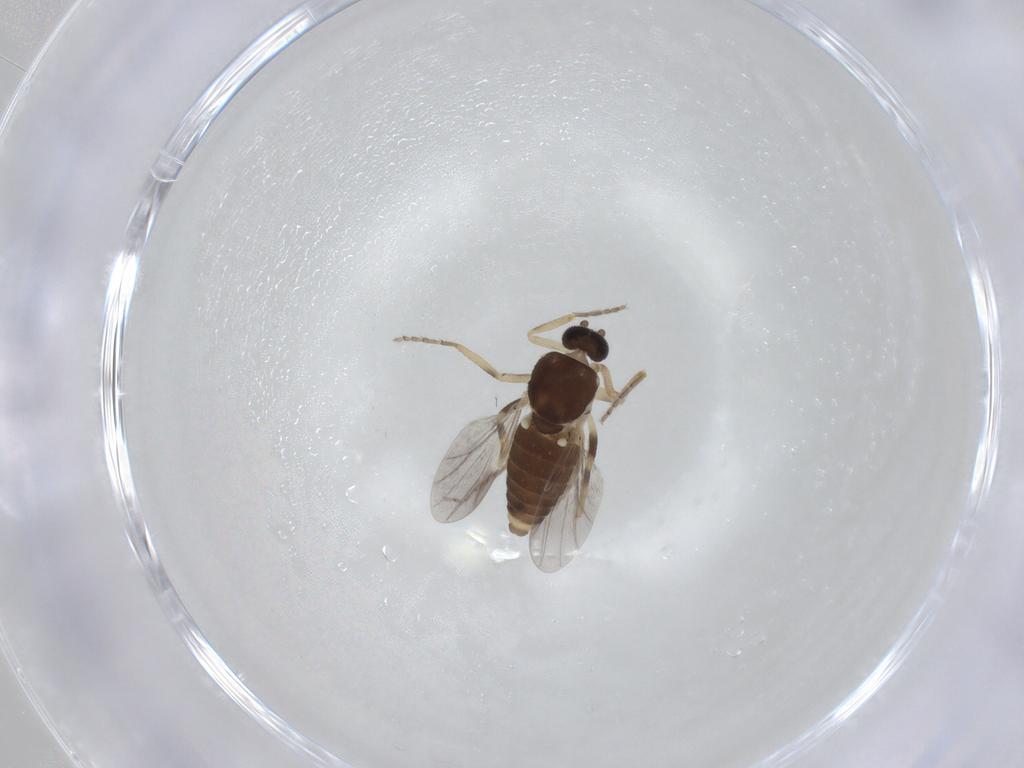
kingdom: Animalia
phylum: Arthropoda
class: Insecta
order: Diptera
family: Ceratopogonidae
